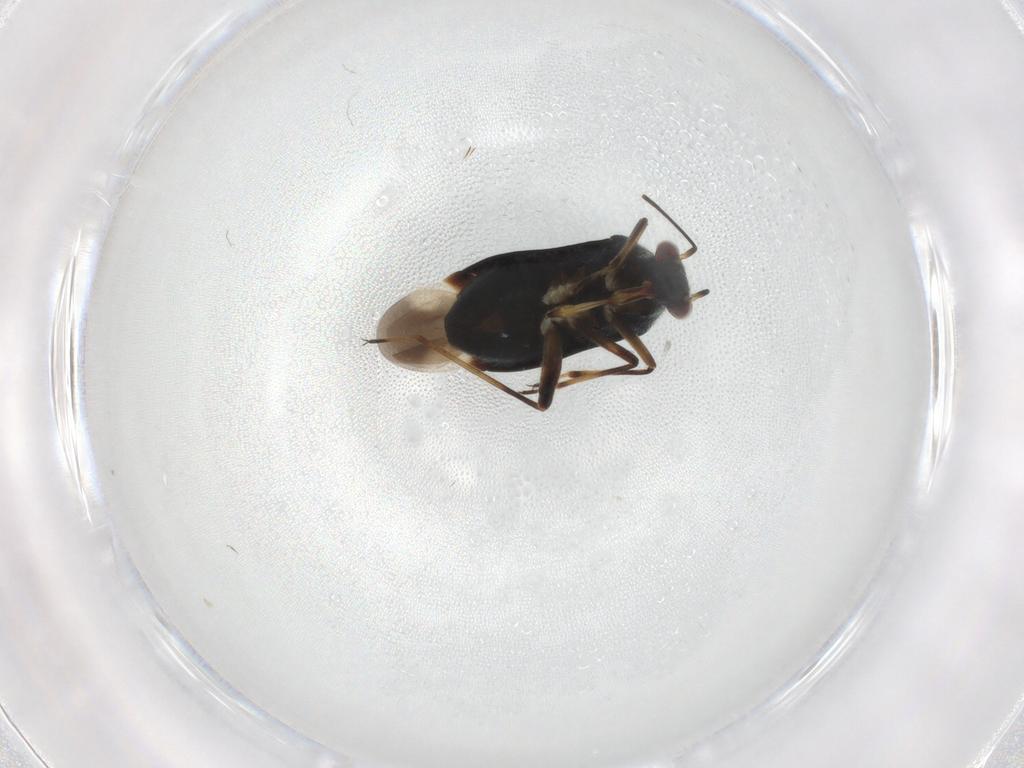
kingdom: Animalia
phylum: Arthropoda
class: Insecta
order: Hemiptera
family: Miridae
